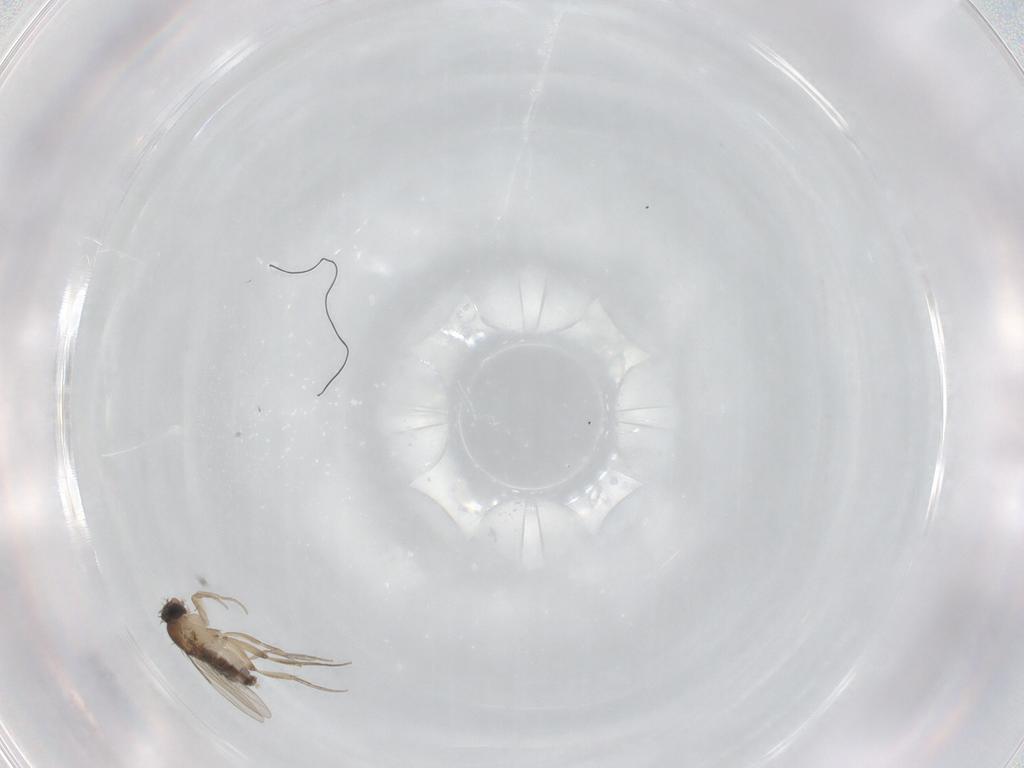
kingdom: Animalia
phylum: Arthropoda
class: Insecta
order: Diptera
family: Phoridae
